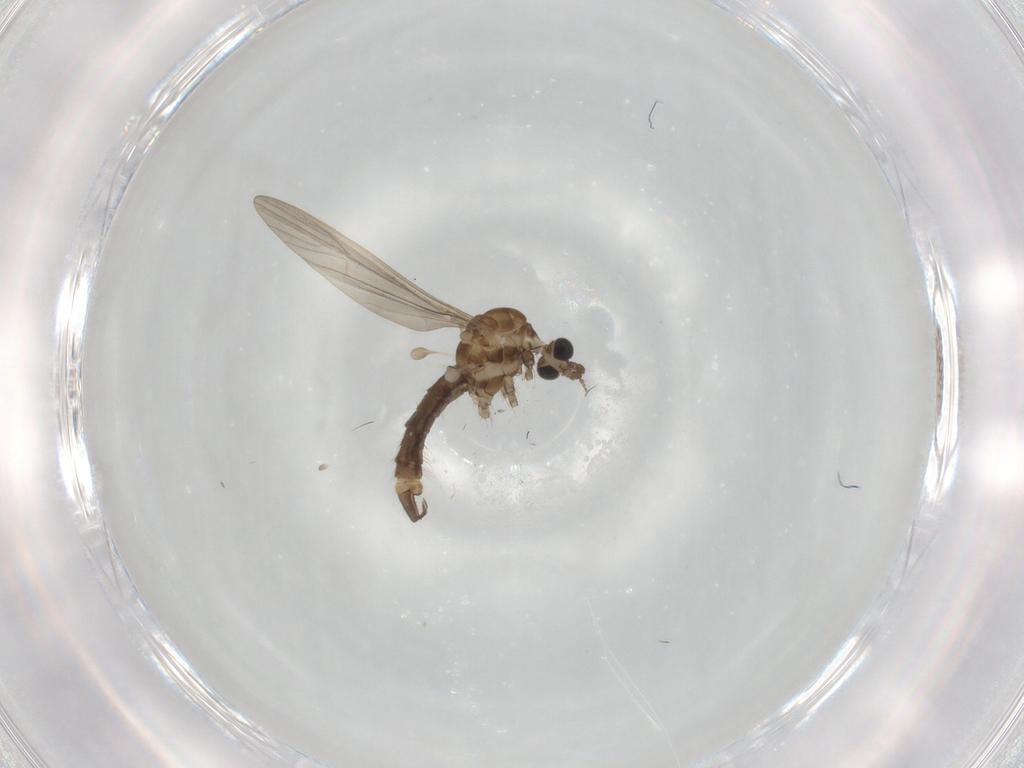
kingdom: Animalia
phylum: Arthropoda
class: Insecta
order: Diptera
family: Limoniidae
